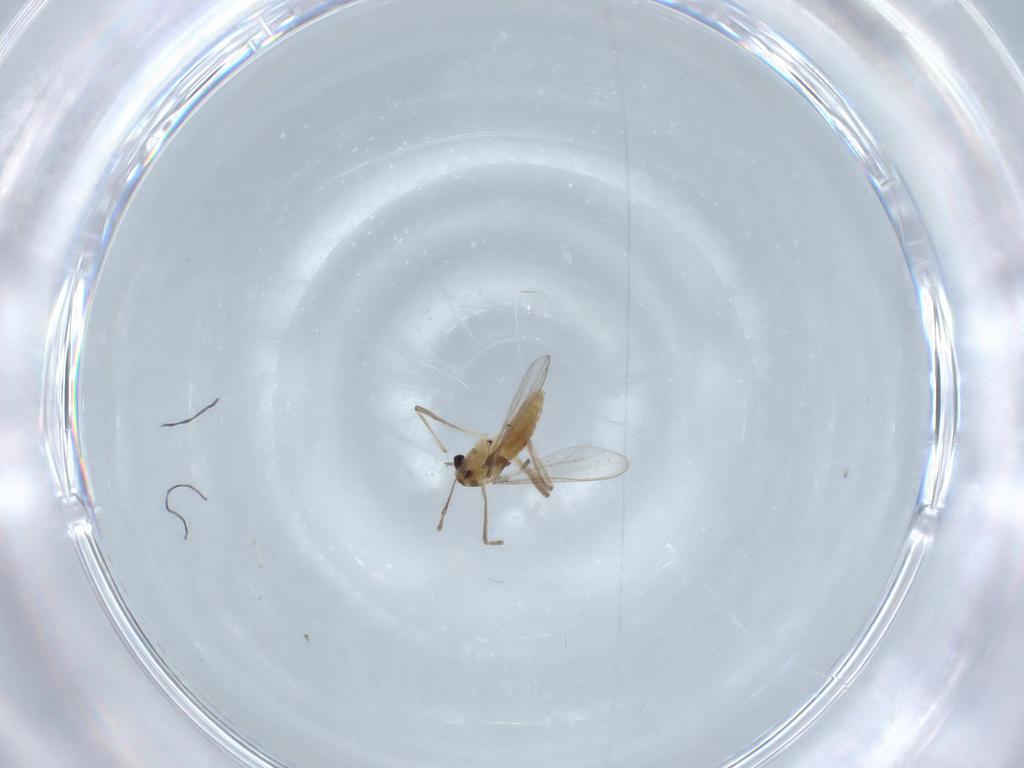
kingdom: Animalia
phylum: Arthropoda
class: Insecta
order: Diptera
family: Chironomidae
